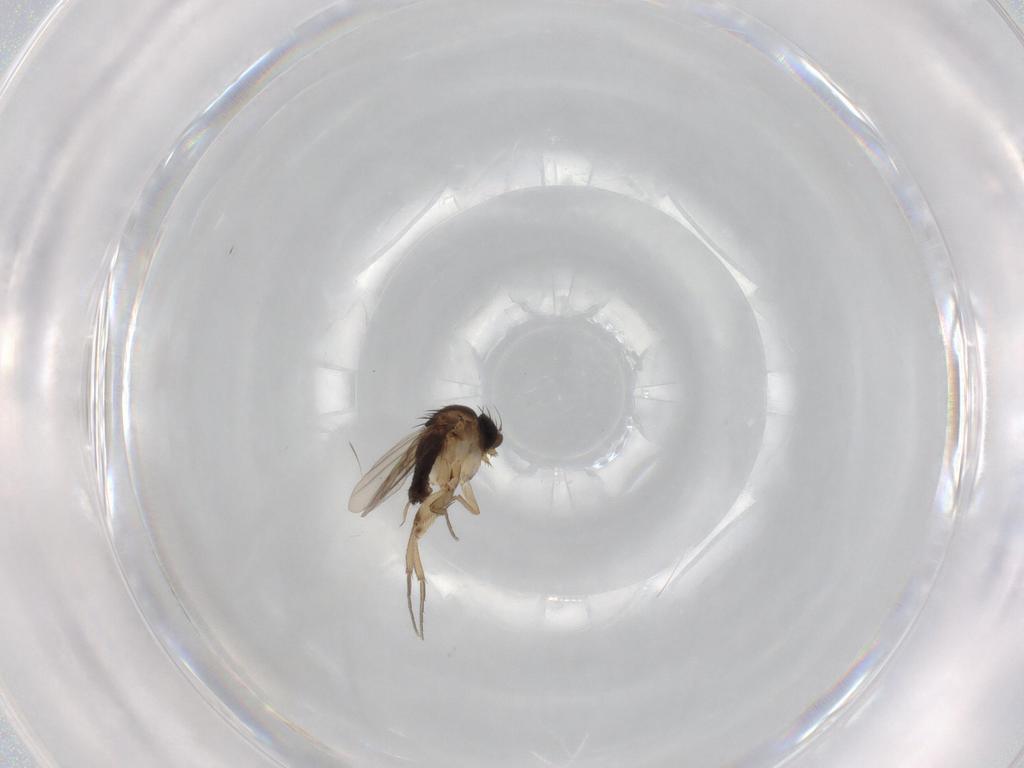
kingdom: Animalia
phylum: Arthropoda
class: Insecta
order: Diptera
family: Phoridae
